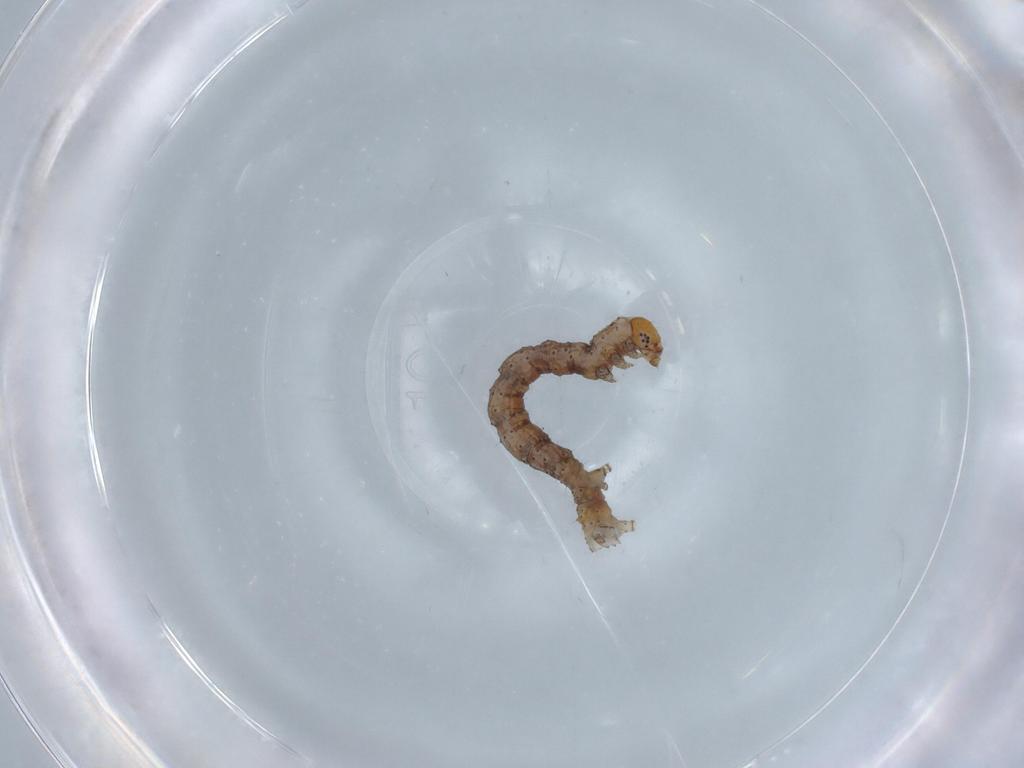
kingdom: Animalia
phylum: Arthropoda
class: Insecta
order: Lepidoptera
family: Geometridae
